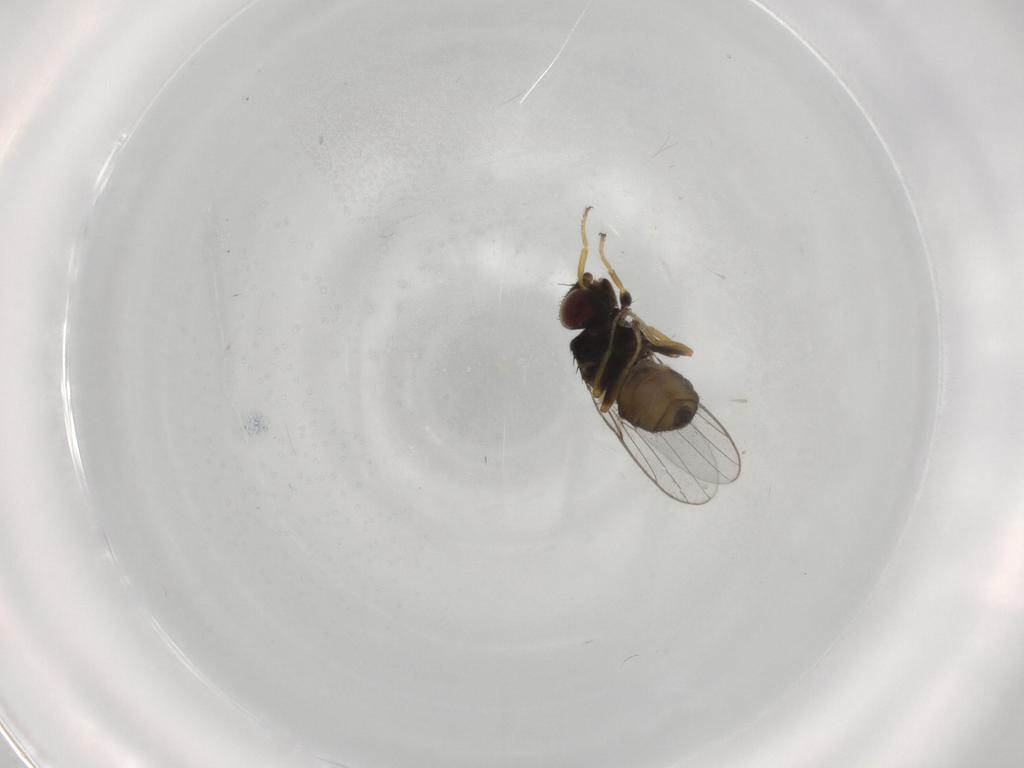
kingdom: Animalia
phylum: Arthropoda
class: Insecta
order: Diptera
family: Chloropidae
